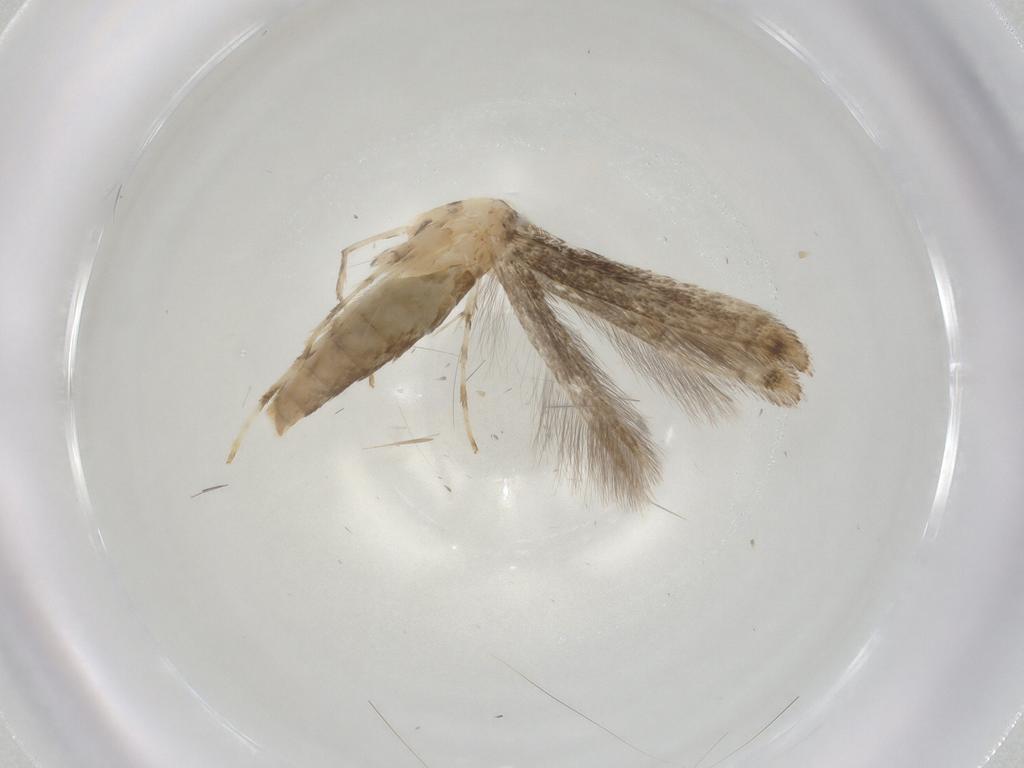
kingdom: Animalia
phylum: Arthropoda
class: Insecta
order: Lepidoptera
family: Gracillariidae
